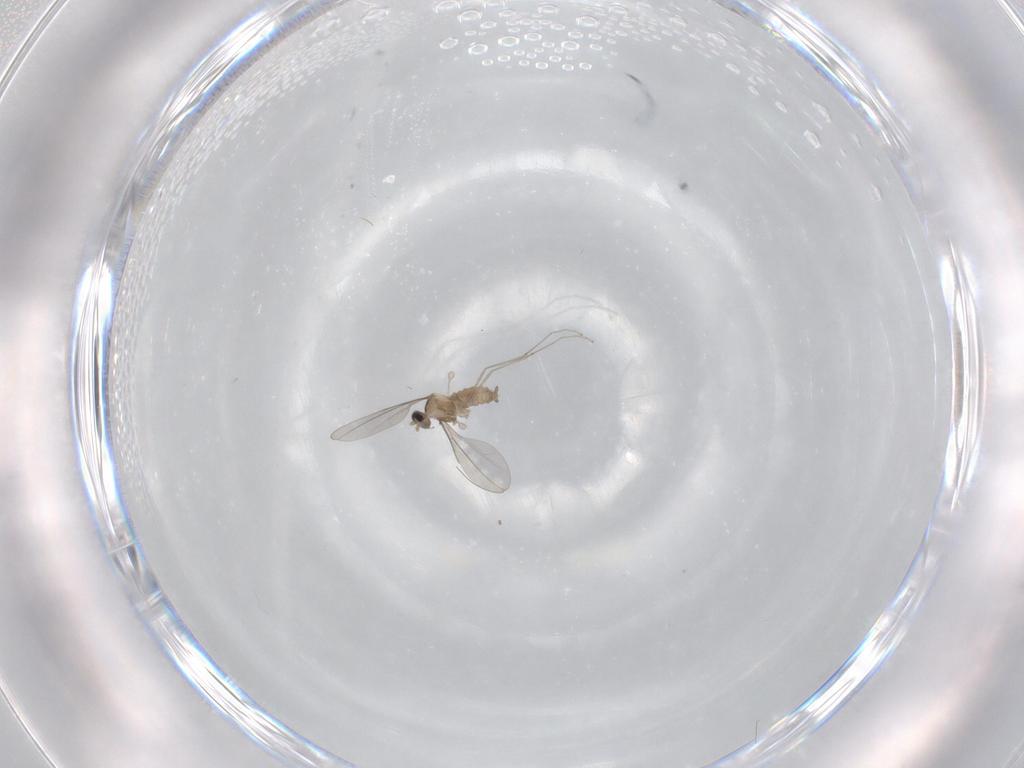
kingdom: Animalia
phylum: Arthropoda
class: Insecta
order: Diptera
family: Cecidomyiidae
